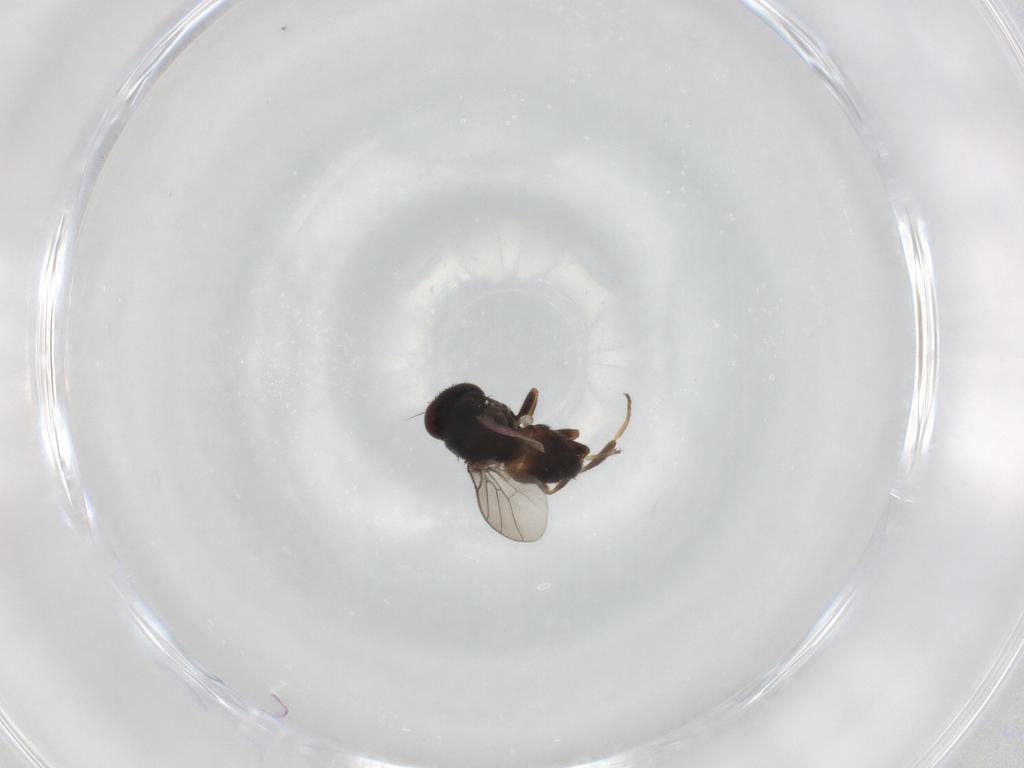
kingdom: Animalia
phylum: Arthropoda
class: Insecta
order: Diptera
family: Chloropidae
